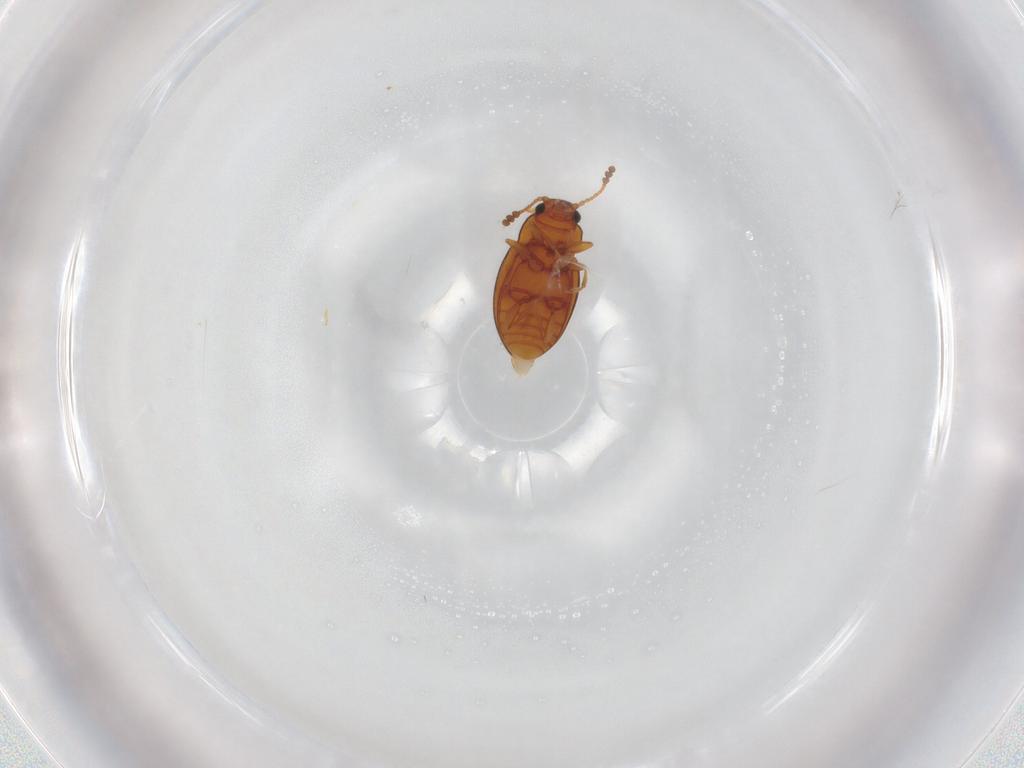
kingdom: Animalia
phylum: Arthropoda
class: Insecta
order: Coleoptera
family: Erotylidae
